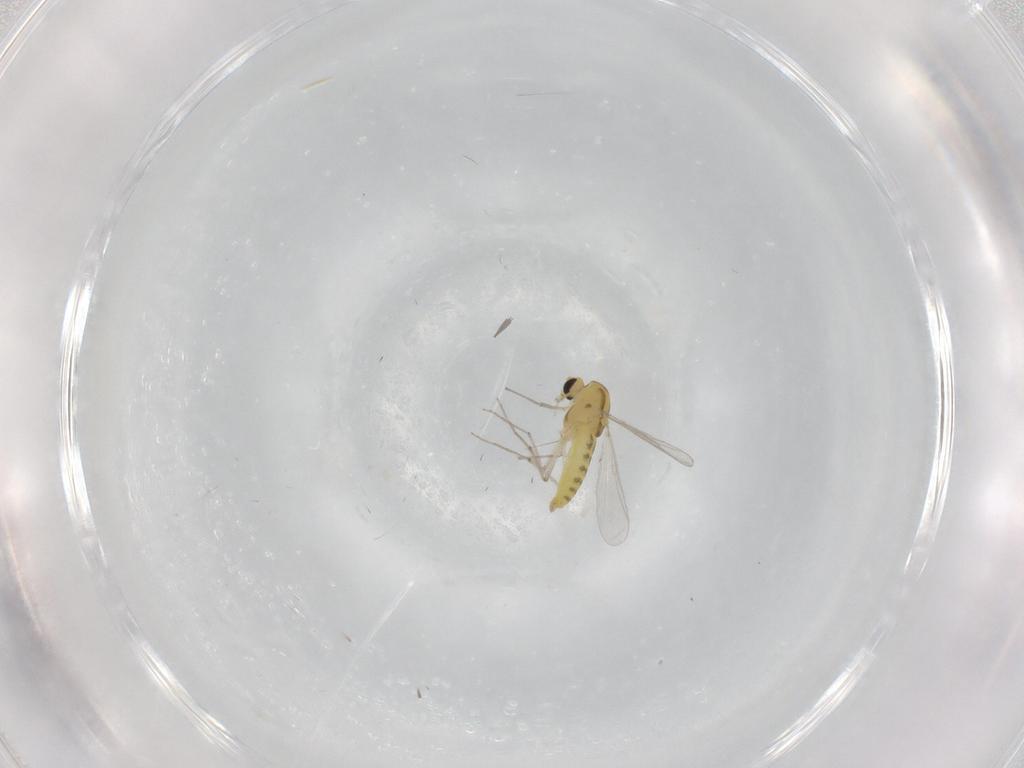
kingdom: Animalia
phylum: Arthropoda
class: Insecta
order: Diptera
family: Chironomidae
